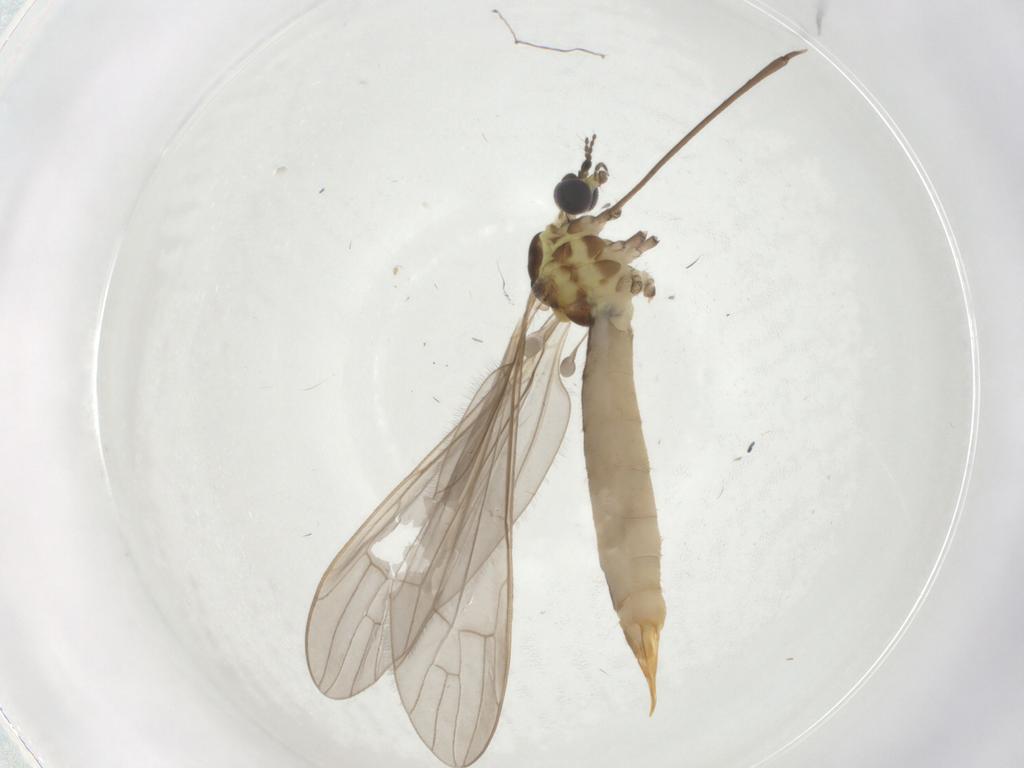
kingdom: Animalia
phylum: Arthropoda
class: Insecta
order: Diptera
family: Limoniidae
